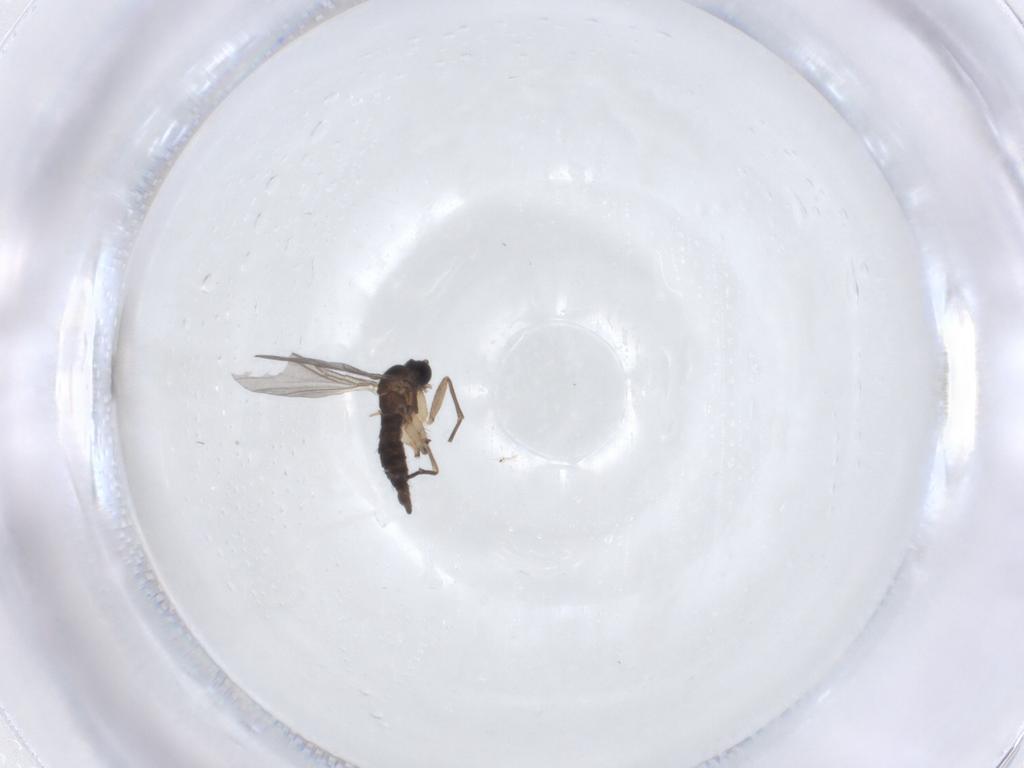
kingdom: Animalia
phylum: Arthropoda
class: Insecta
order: Diptera
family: Sciaridae
